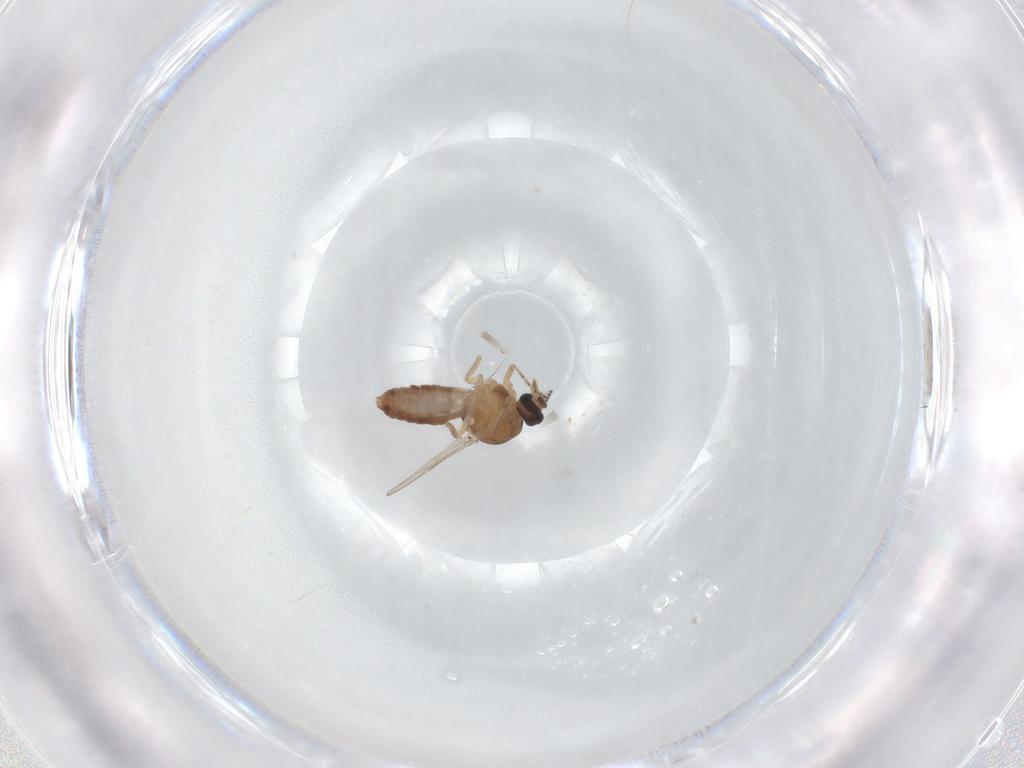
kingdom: Animalia
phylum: Arthropoda
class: Insecta
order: Diptera
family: Ceratopogonidae
